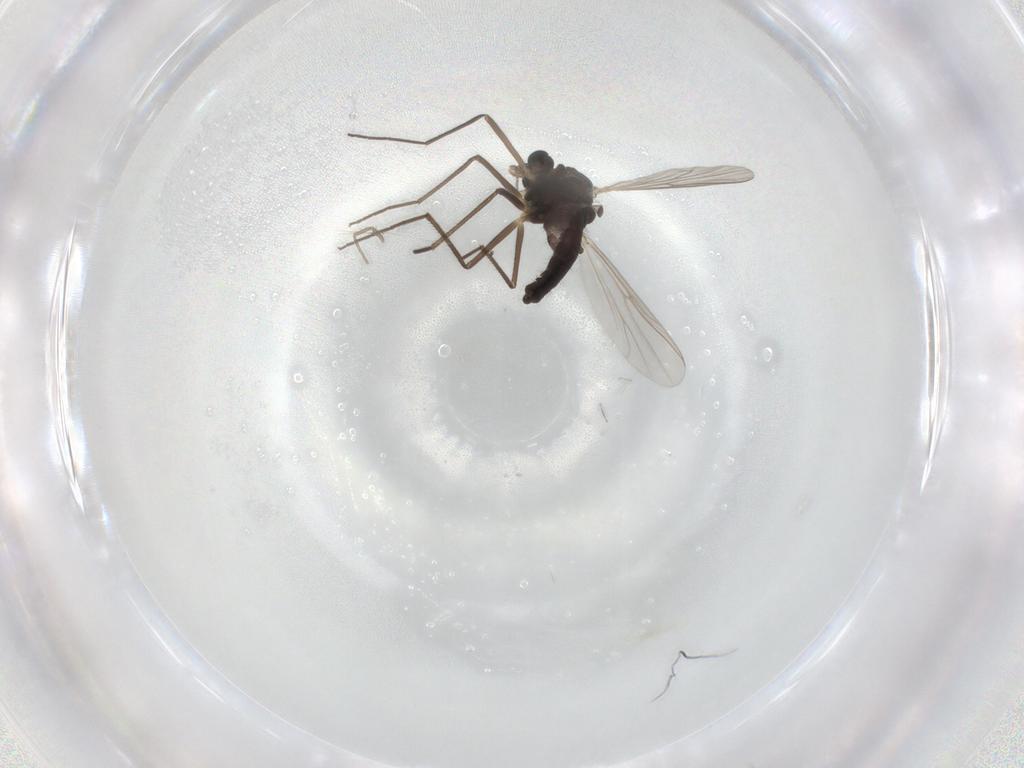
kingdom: Animalia
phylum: Arthropoda
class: Insecta
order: Diptera
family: Chironomidae
